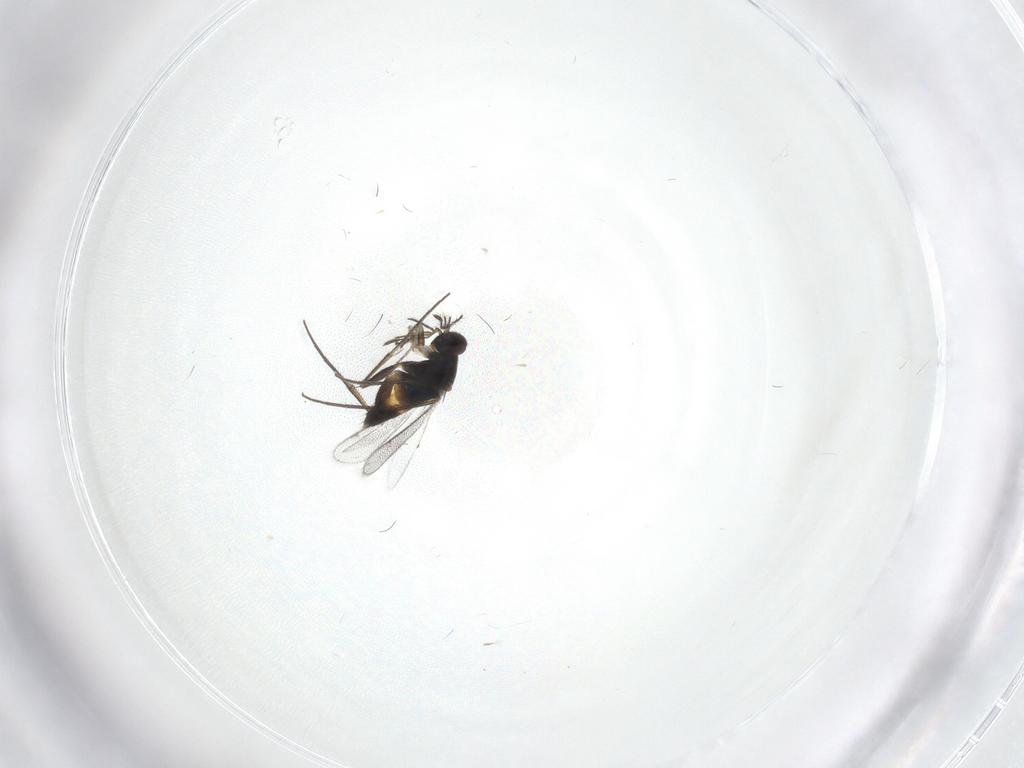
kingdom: Animalia
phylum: Arthropoda
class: Insecta
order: Hymenoptera
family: Eulophidae
